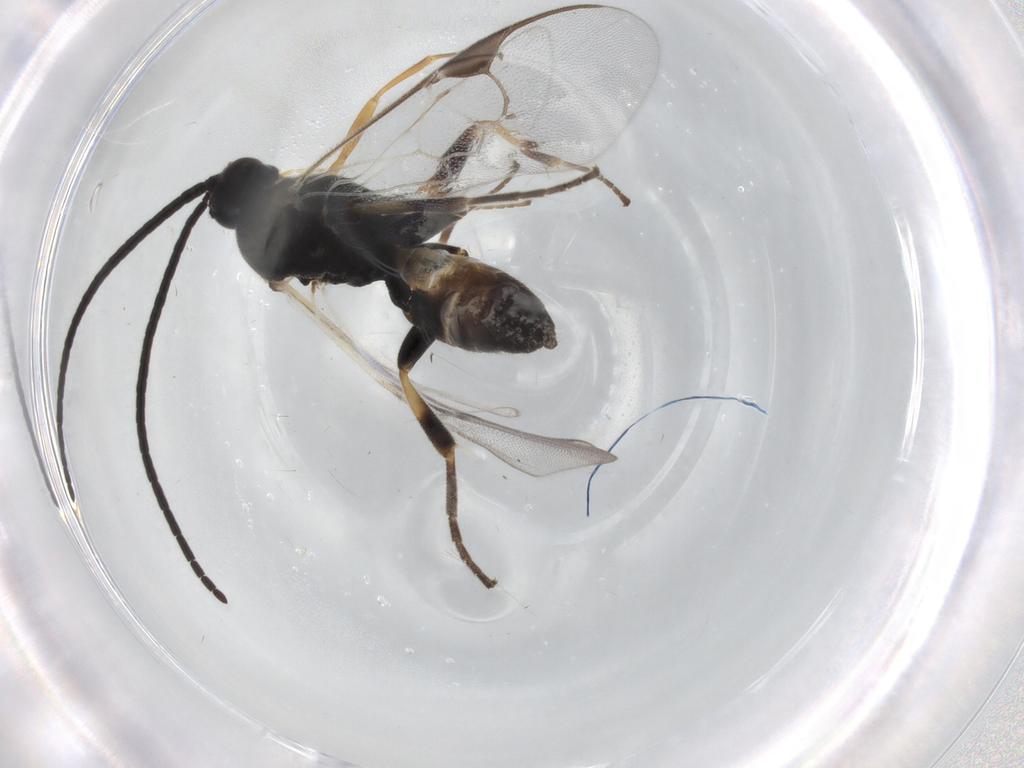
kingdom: Animalia
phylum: Arthropoda
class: Insecta
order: Hymenoptera
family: Braconidae
